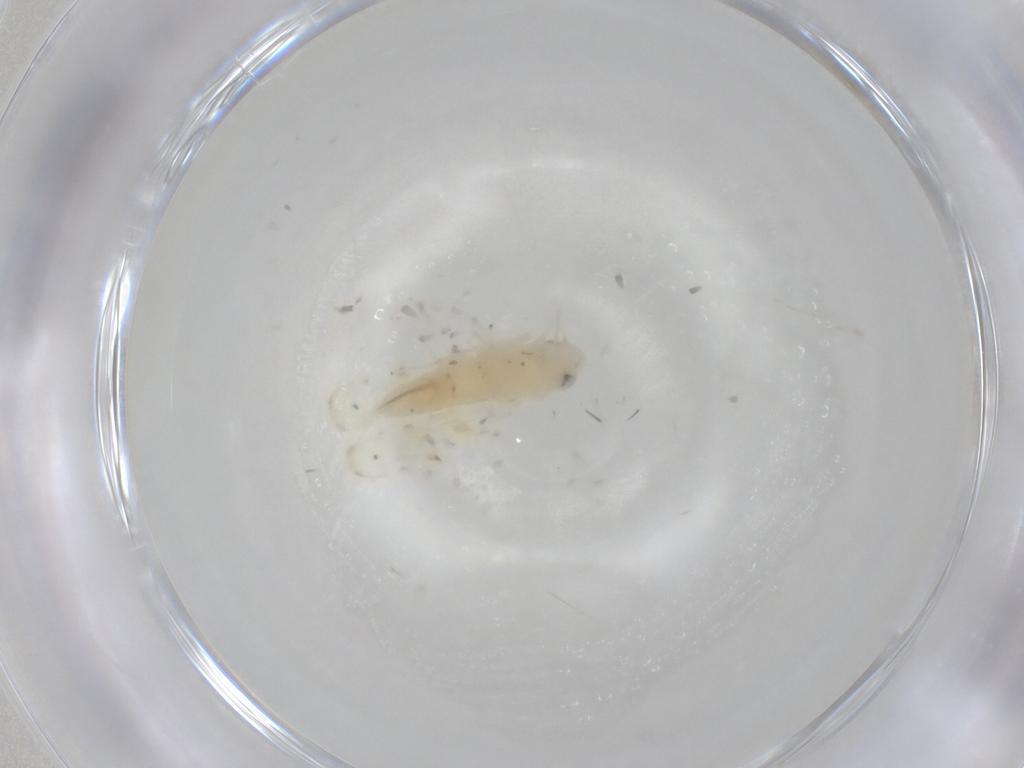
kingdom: Animalia
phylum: Arthropoda
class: Insecta
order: Hemiptera
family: Cicadellidae
